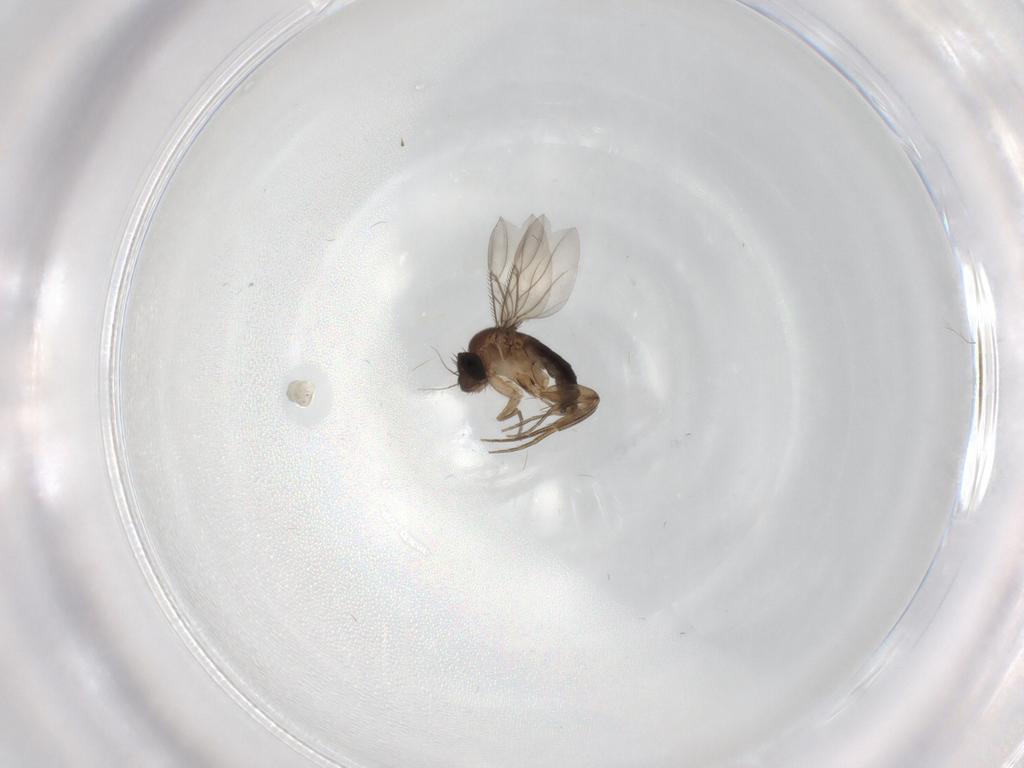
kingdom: Animalia
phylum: Arthropoda
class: Insecta
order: Diptera
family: Phoridae
